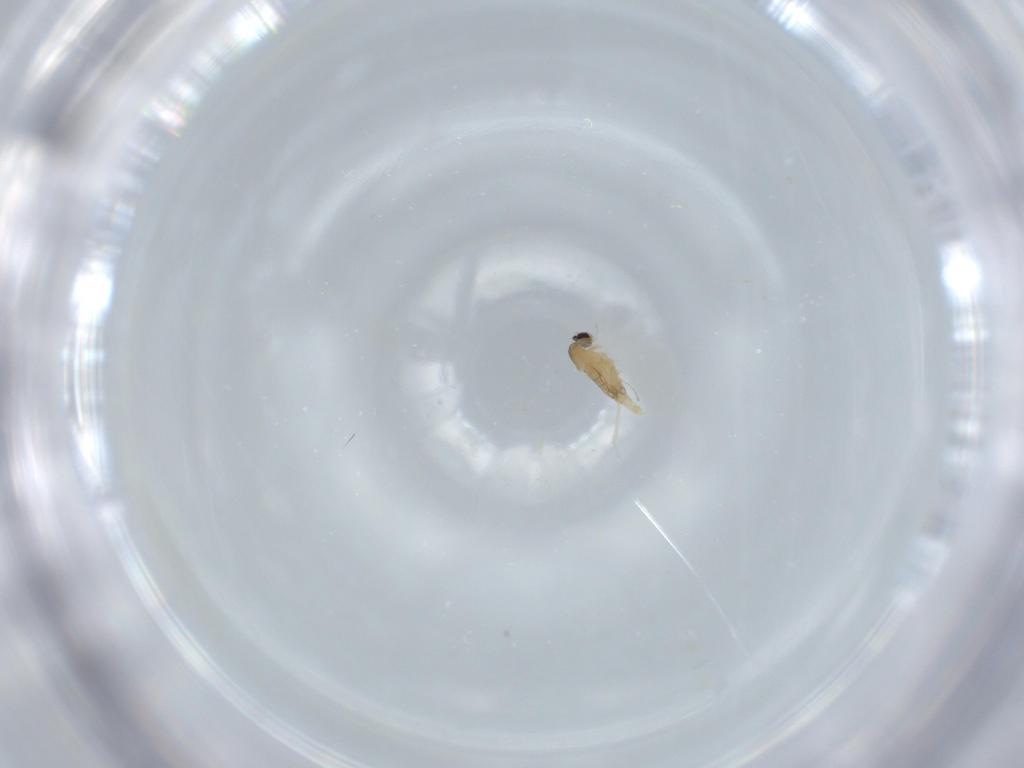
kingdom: Animalia
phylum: Arthropoda
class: Insecta
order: Diptera
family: Cecidomyiidae
